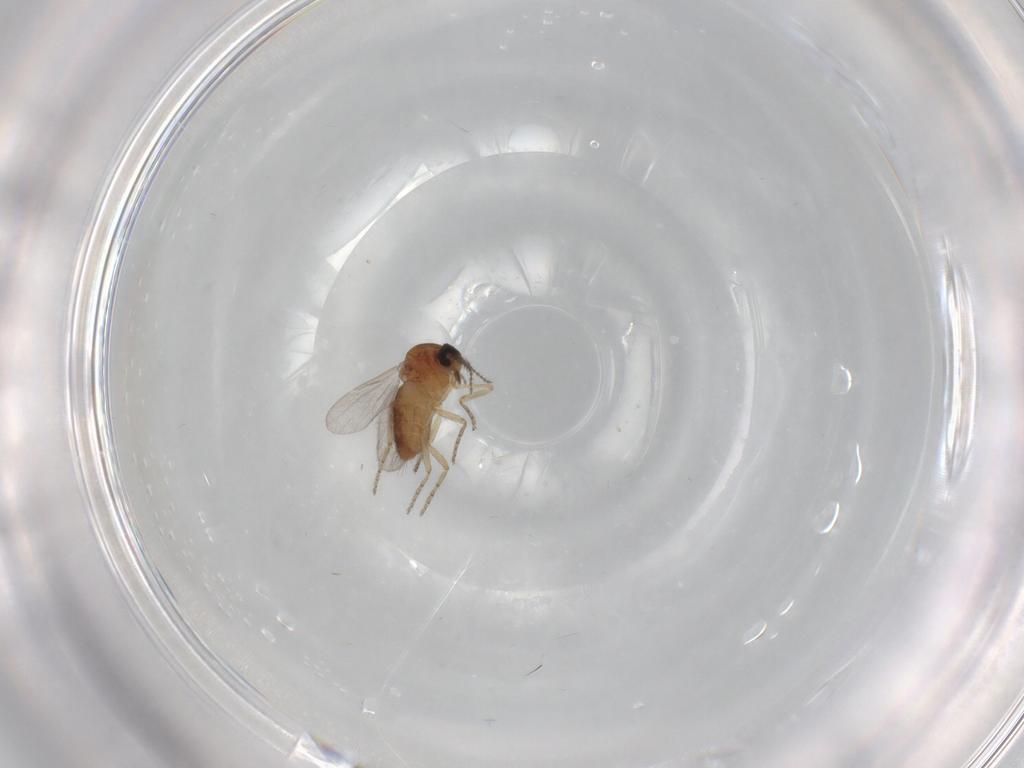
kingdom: Animalia
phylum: Arthropoda
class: Insecta
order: Diptera
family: Ceratopogonidae
